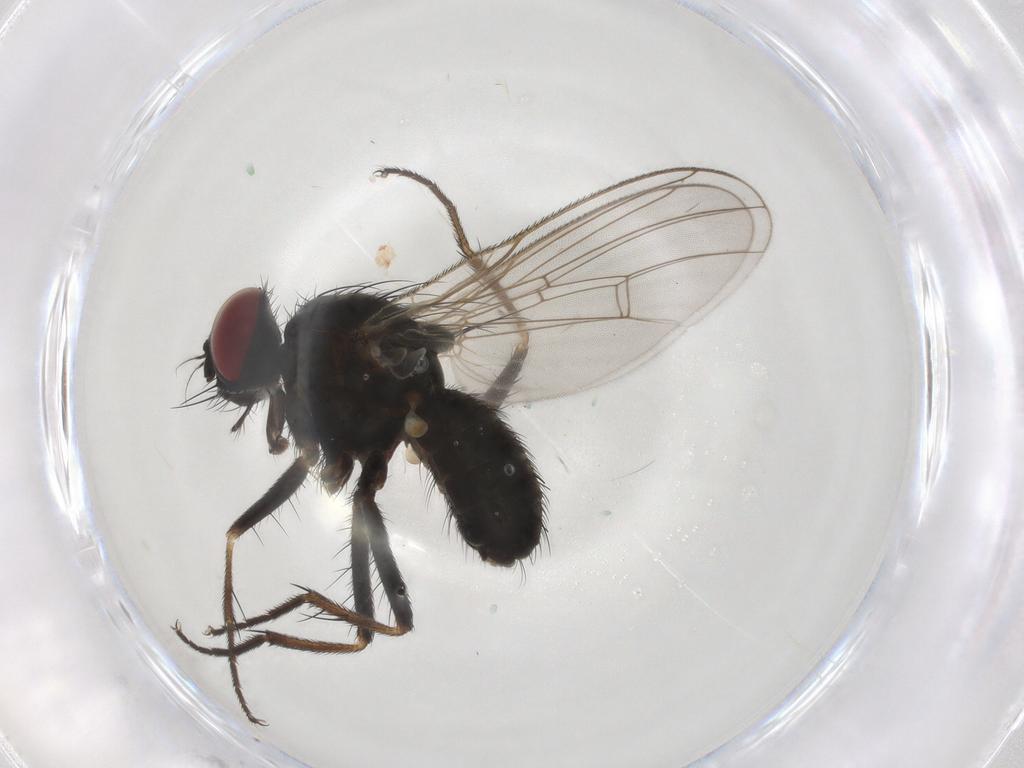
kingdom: Animalia
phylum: Arthropoda
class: Insecta
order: Diptera
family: Muscidae
